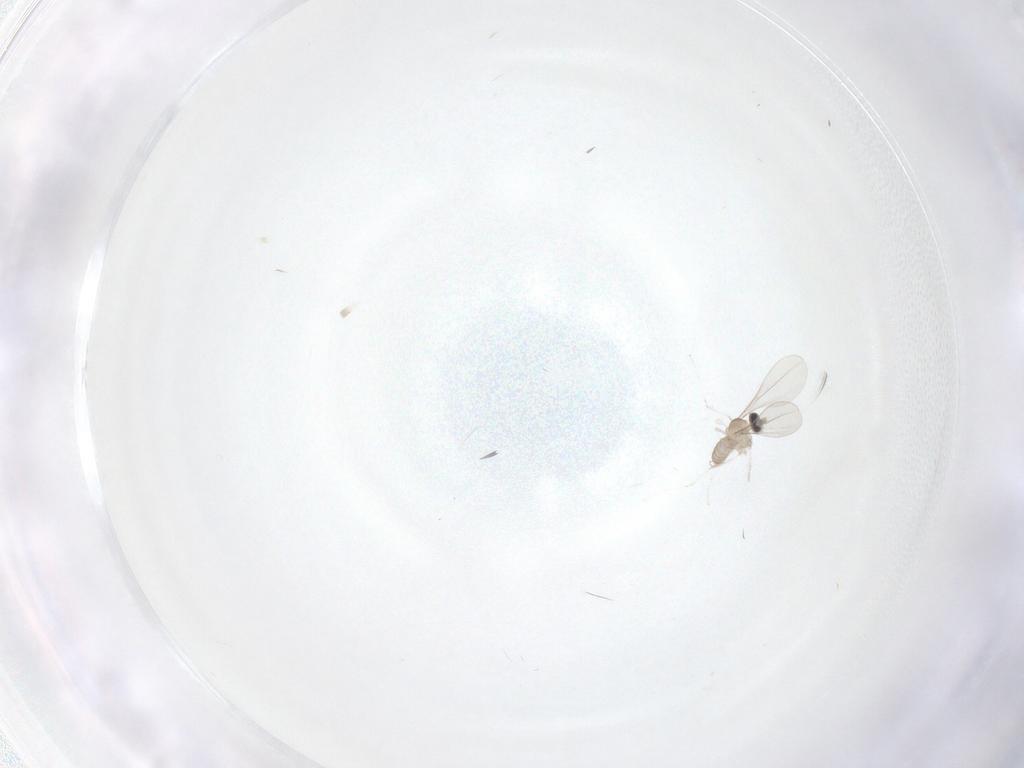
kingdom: Animalia
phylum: Arthropoda
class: Insecta
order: Diptera
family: Cecidomyiidae
